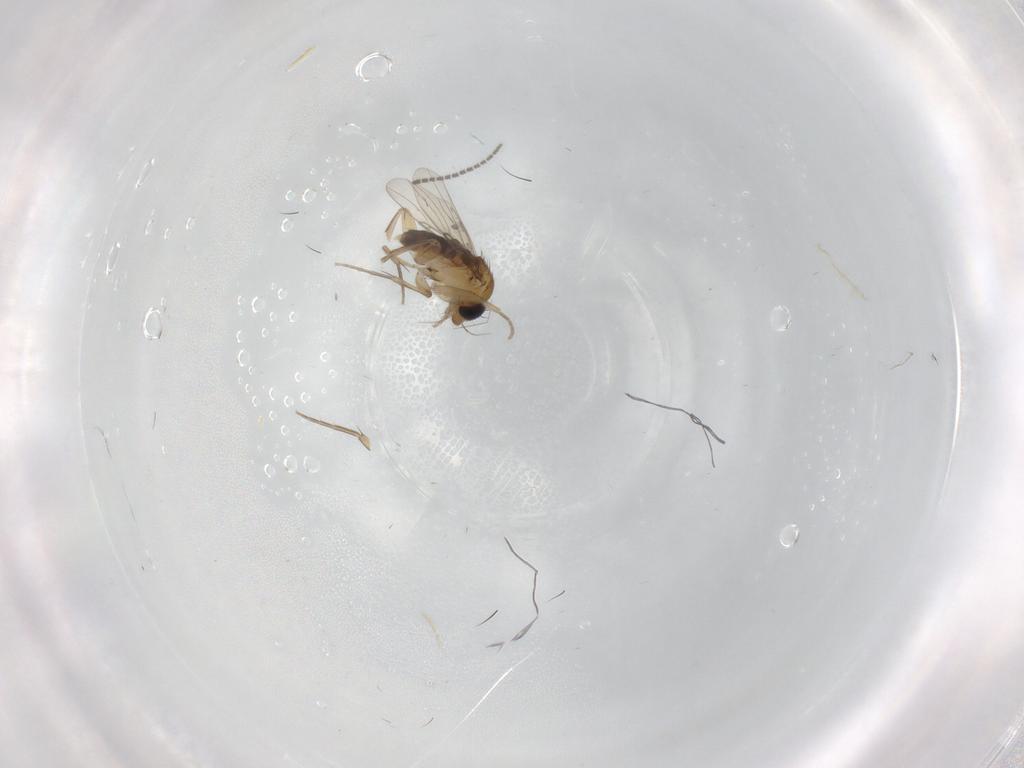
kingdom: Animalia
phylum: Arthropoda
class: Insecta
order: Diptera
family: Phoridae
